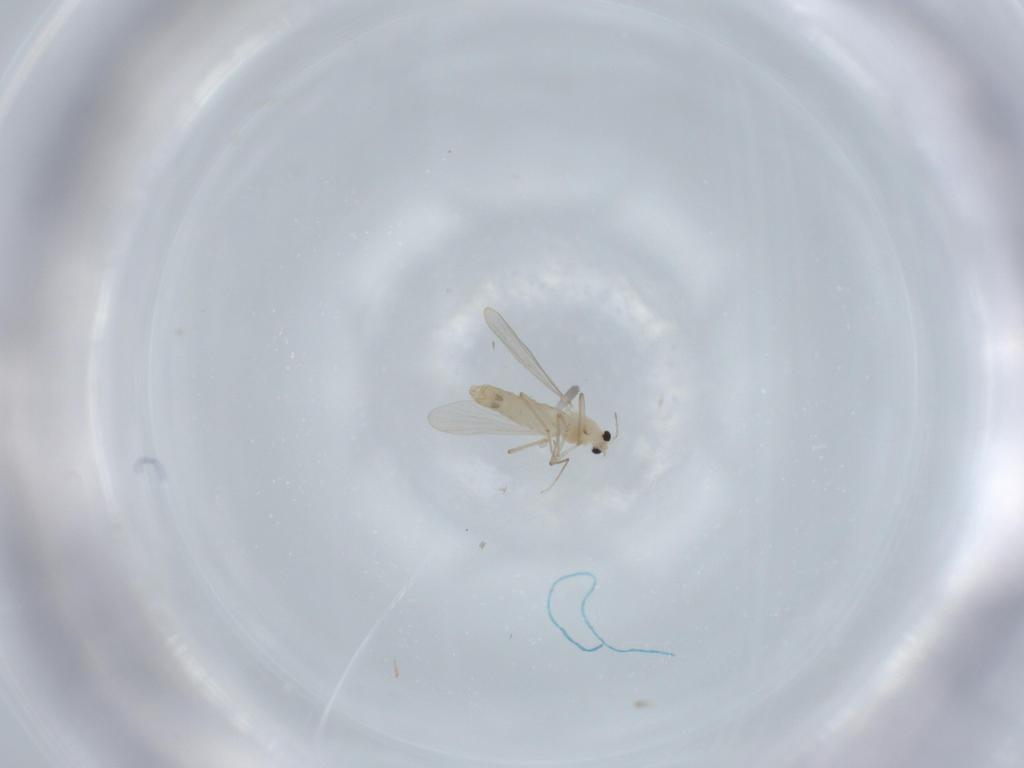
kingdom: Animalia
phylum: Arthropoda
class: Insecta
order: Diptera
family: Chironomidae
